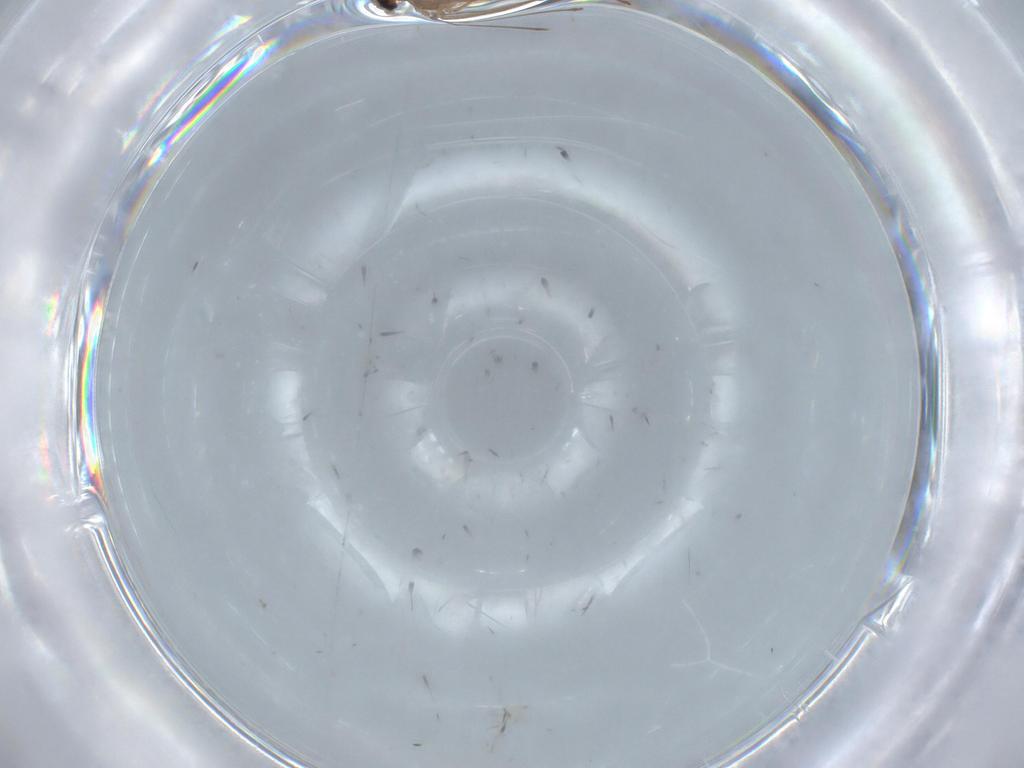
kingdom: Animalia
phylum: Arthropoda
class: Insecta
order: Diptera
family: Cecidomyiidae
